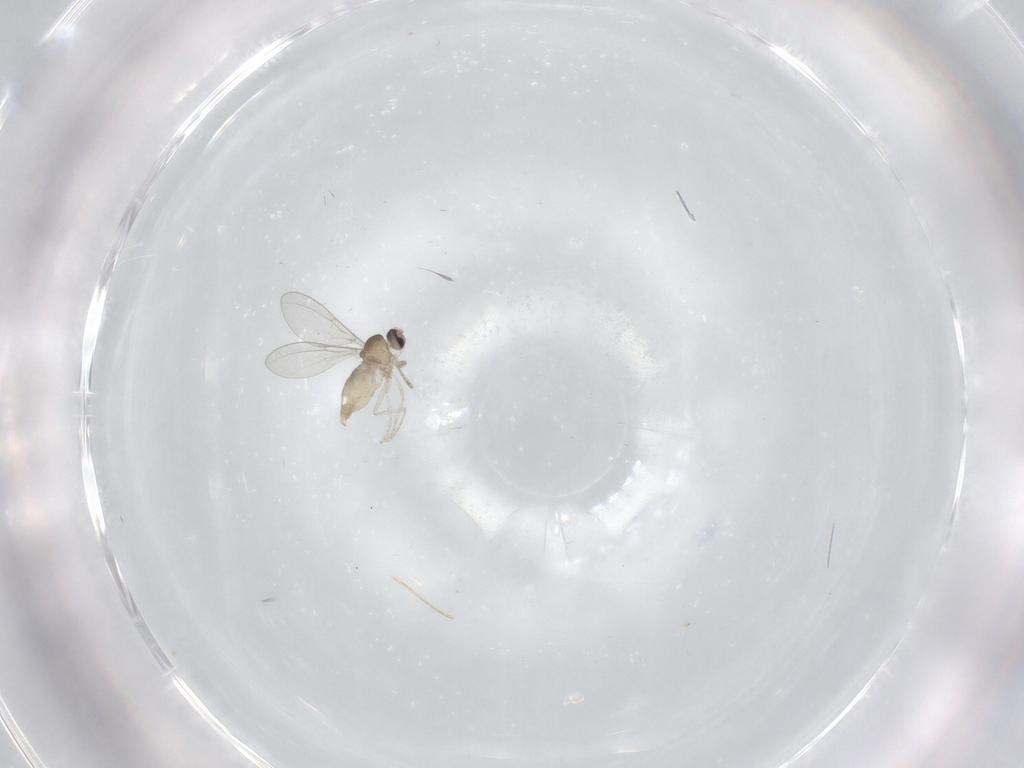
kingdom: Animalia
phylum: Arthropoda
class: Insecta
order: Diptera
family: Cecidomyiidae
